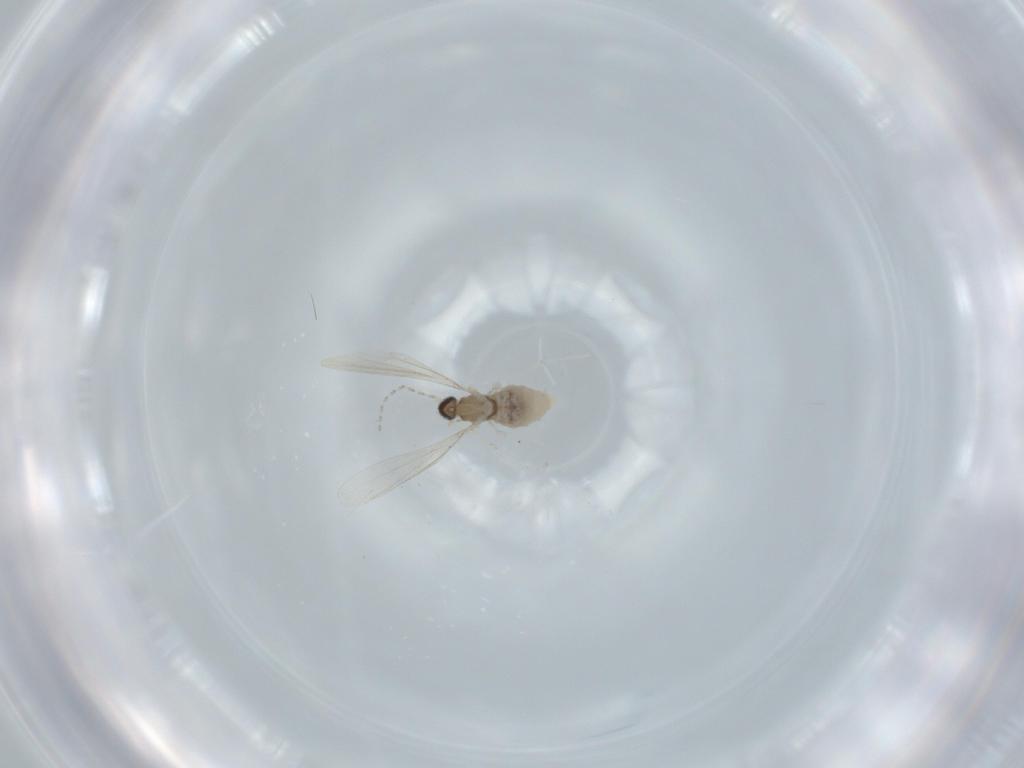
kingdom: Animalia
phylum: Arthropoda
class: Insecta
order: Diptera
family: Cecidomyiidae
